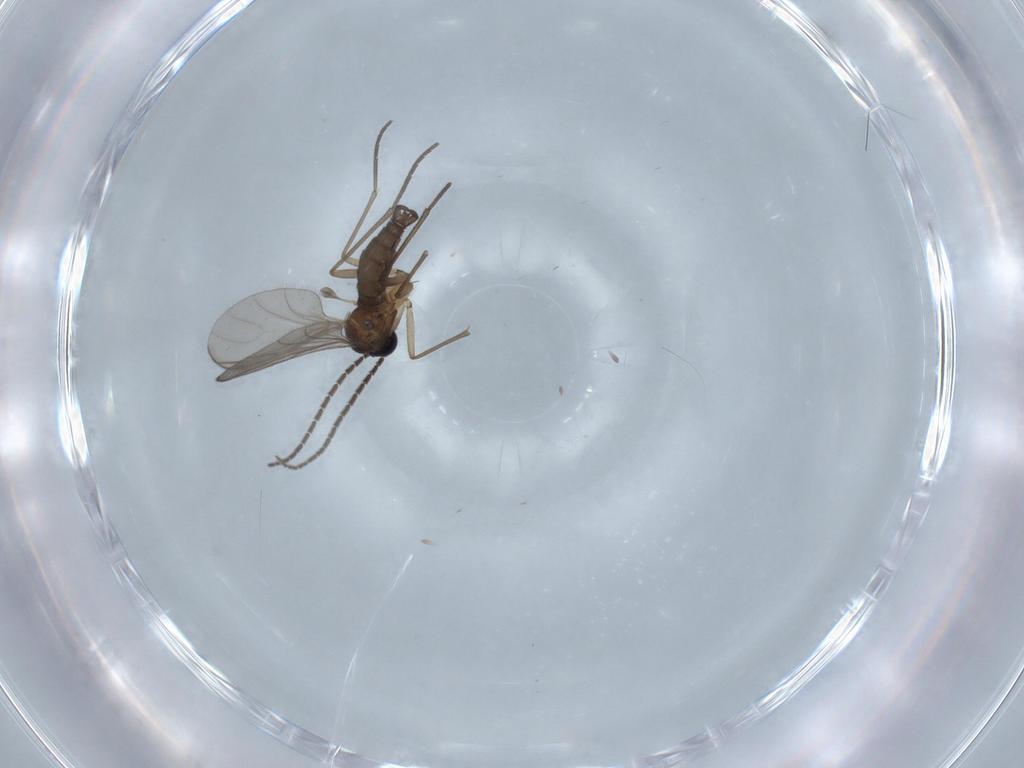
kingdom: Animalia
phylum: Arthropoda
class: Insecta
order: Diptera
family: Sciaridae
